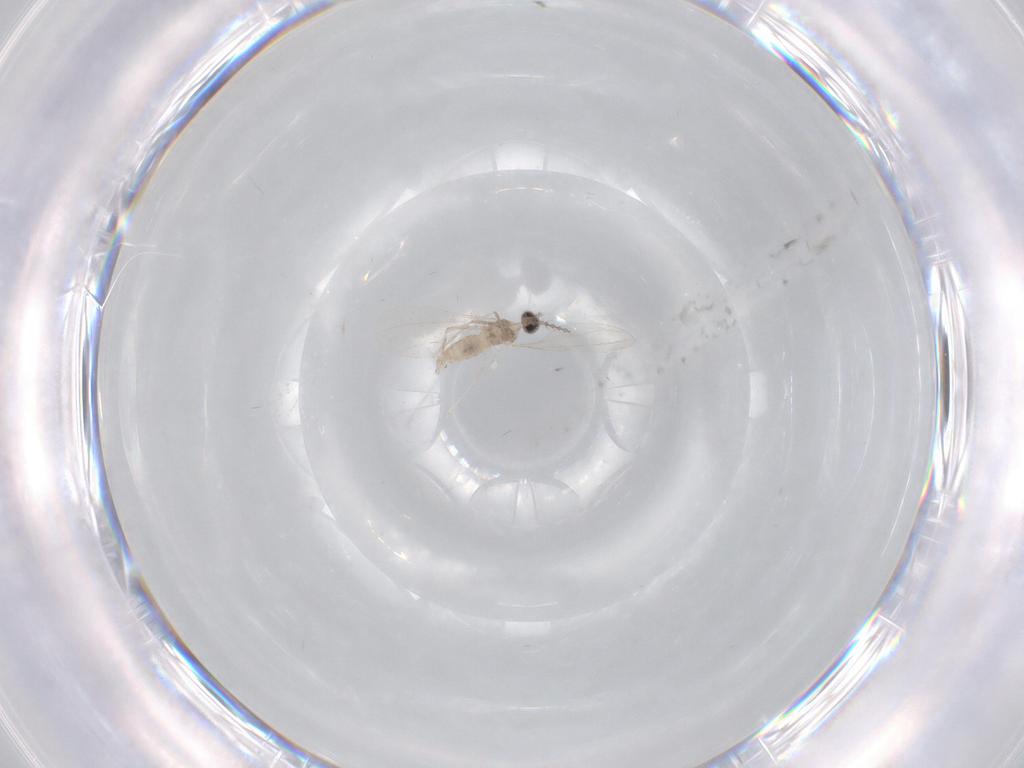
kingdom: Animalia
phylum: Arthropoda
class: Insecta
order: Diptera
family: Cecidomyiidae
